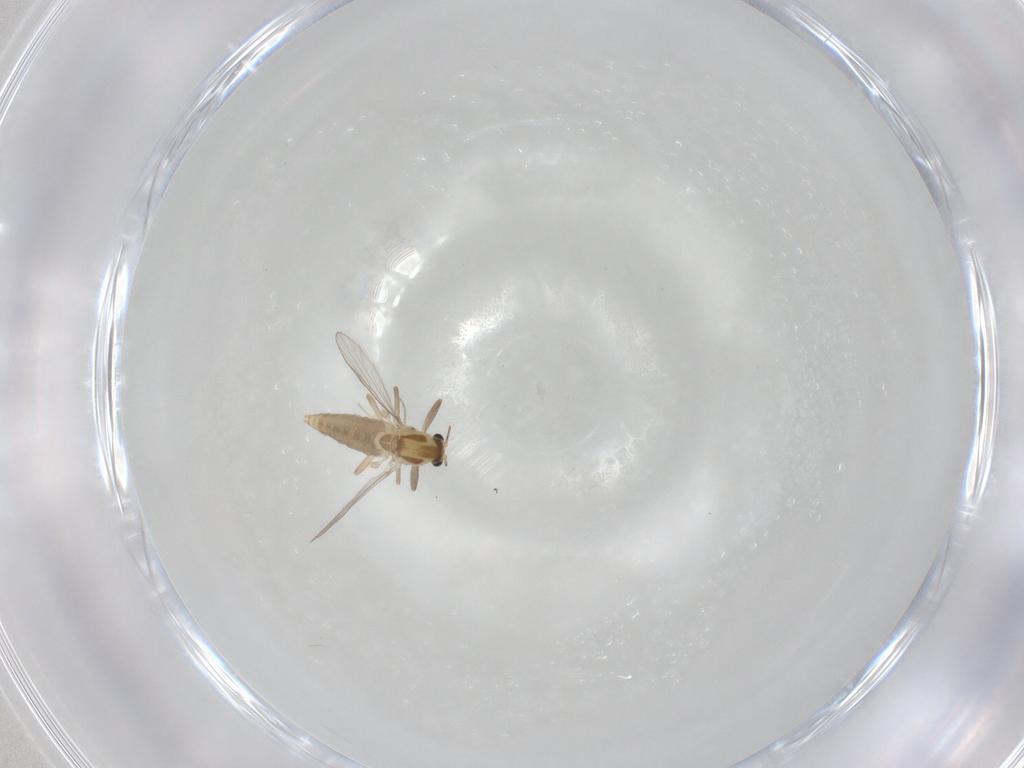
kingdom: Animalia
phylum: Arthropoda
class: Insecta
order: Diptera
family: Chironomidae
